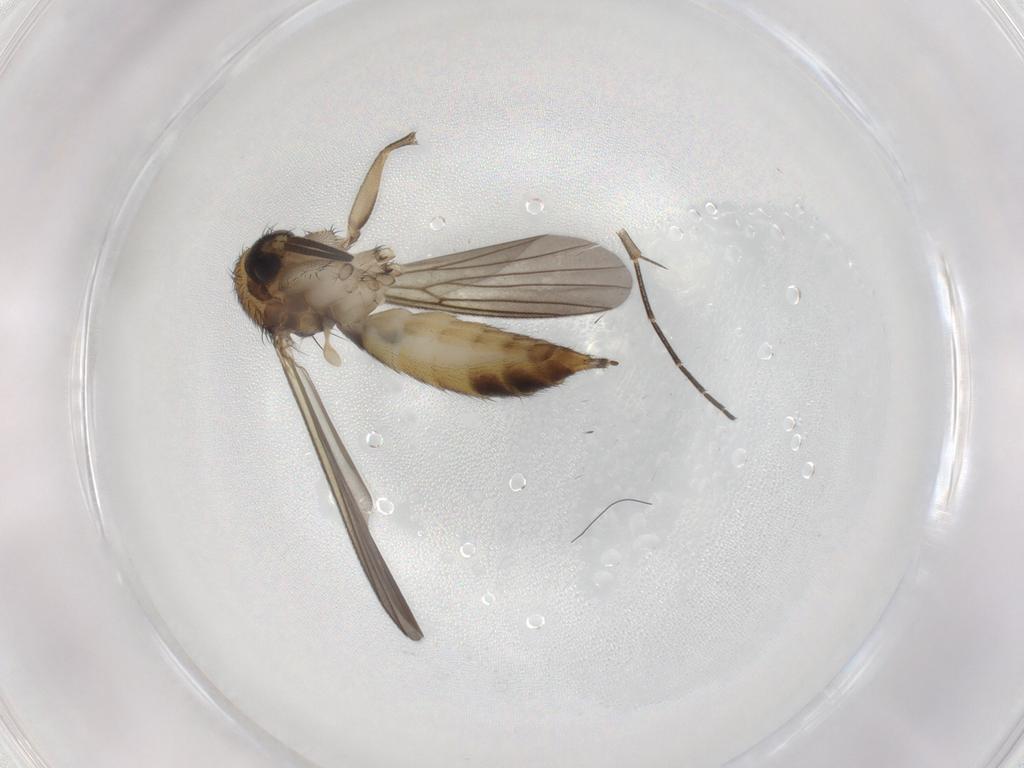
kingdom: Animalia
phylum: Arthropoda
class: Insecta
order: Diptera
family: Mycetophilidae
